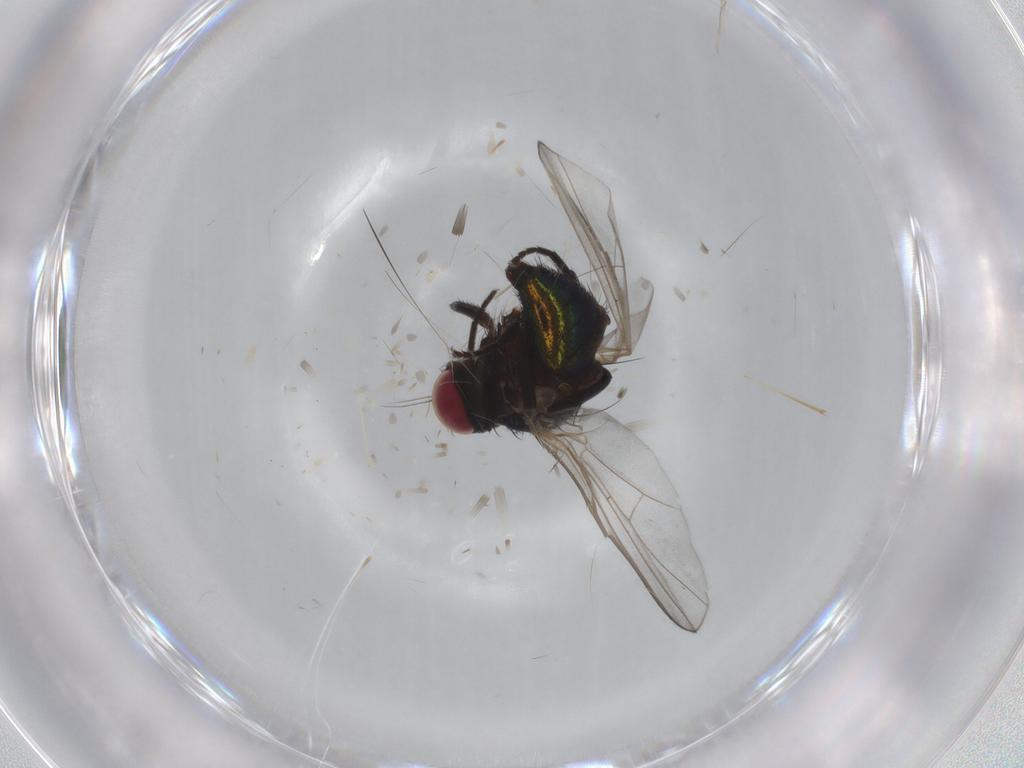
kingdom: Animalia
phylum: Arthropoda
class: Insecta
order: Diptera
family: Agromyzidae
